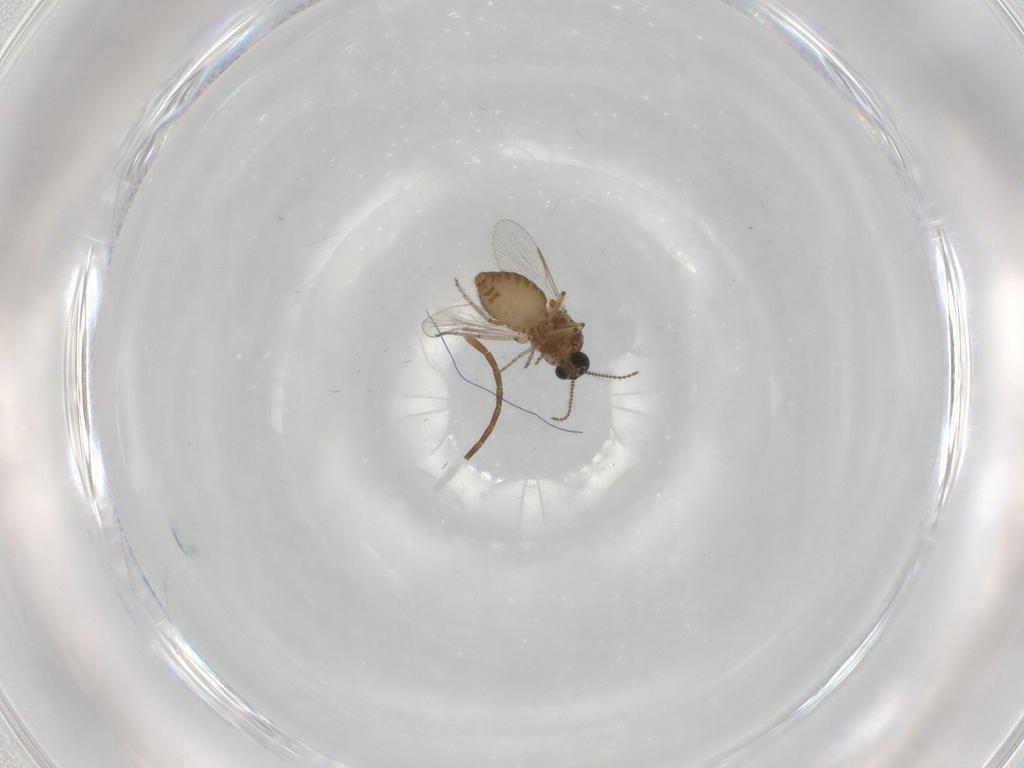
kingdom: Animalia
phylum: Arthropoda
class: Insecta
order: Diptera
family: Ceratopogonidae
